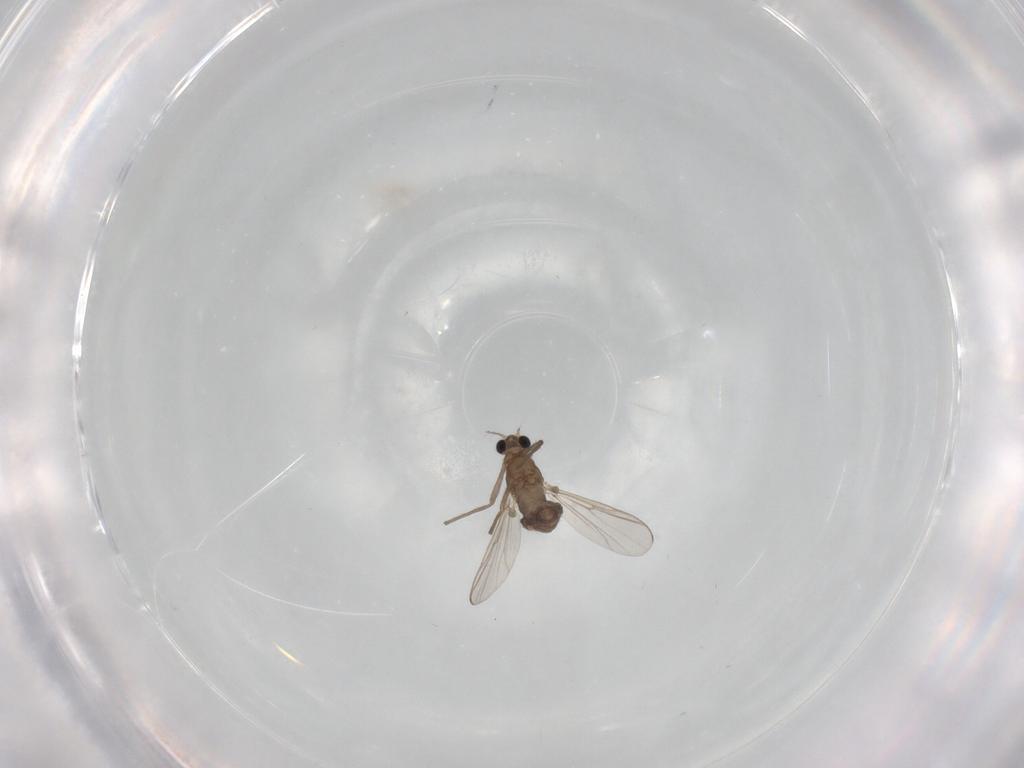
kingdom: Animalia
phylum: Arthropoda
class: Insecta
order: Diptera
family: Chironomidae
